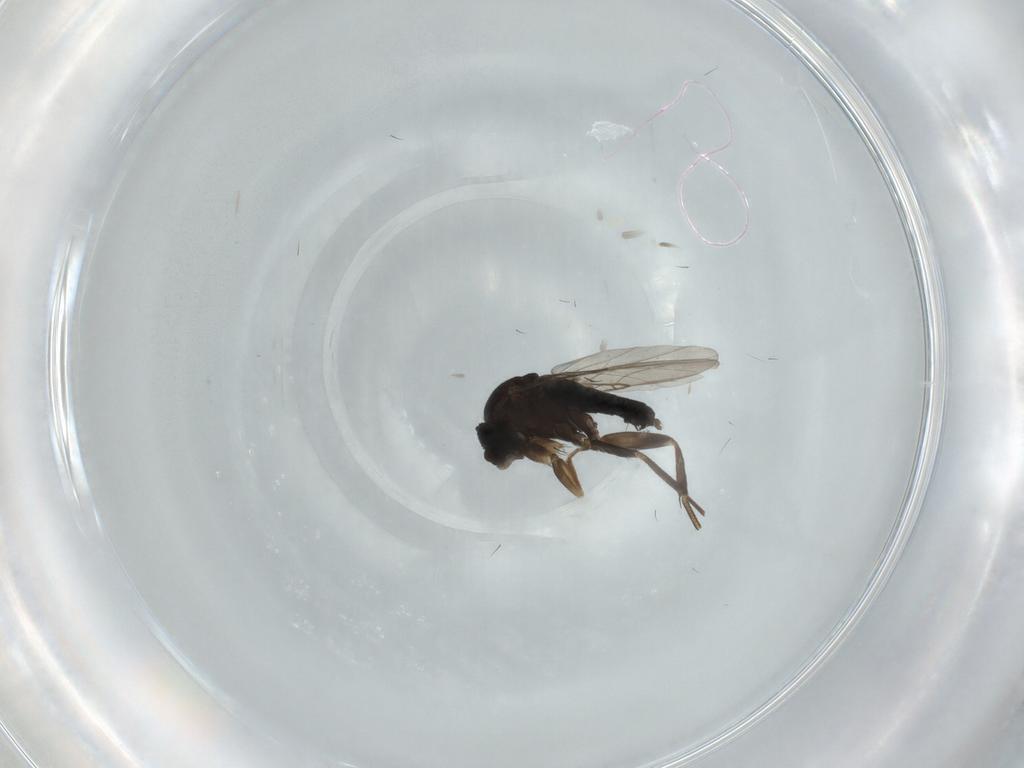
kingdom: Animalia
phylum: Arthropoda
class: Insecta
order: Diptera
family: Phoridae
